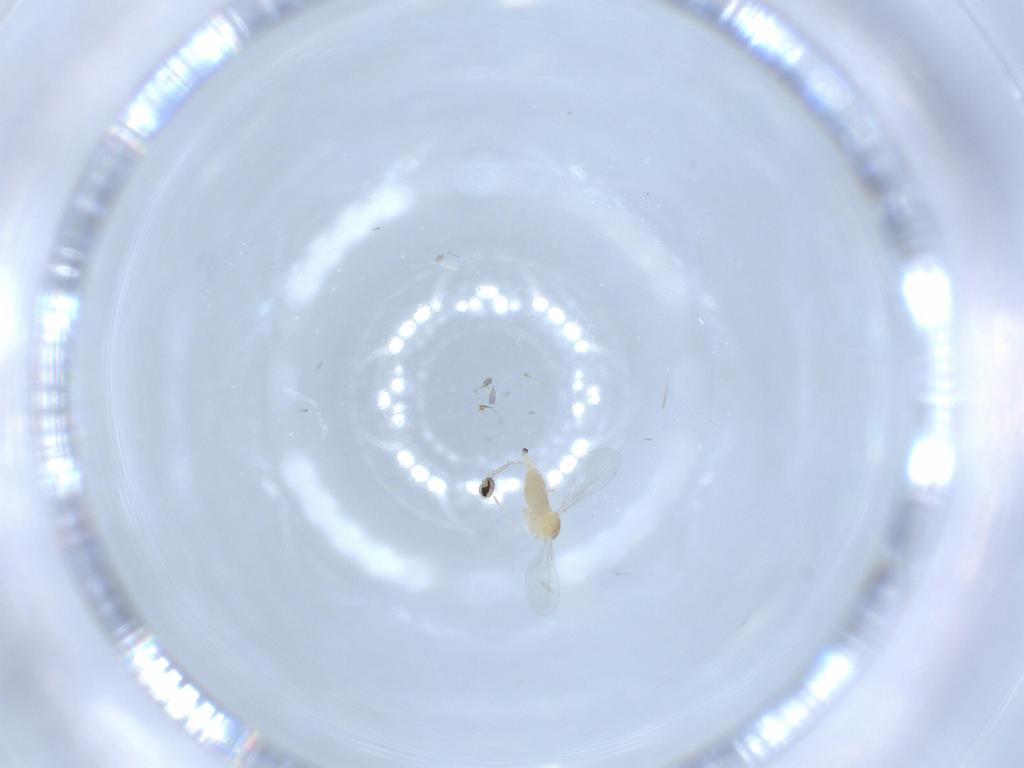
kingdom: Animalia
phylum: Arthropoda
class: Insecta
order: Diptera
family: Cecidomyiidae
